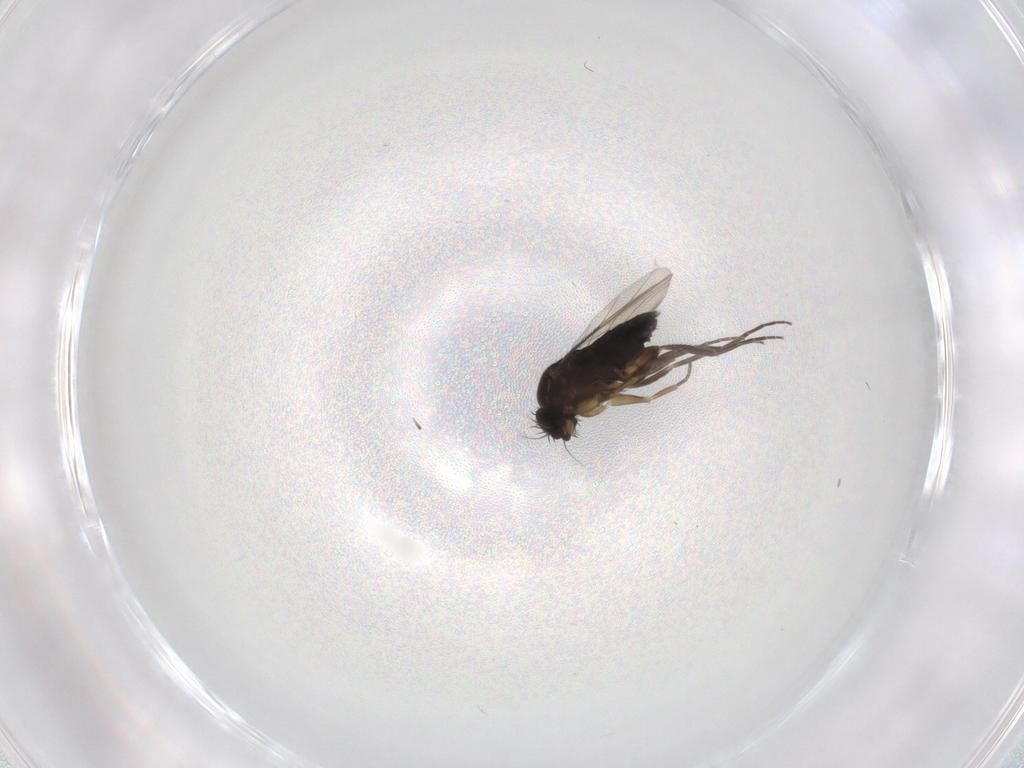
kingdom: Animalia
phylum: Arthropoda
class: Insecta
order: Diptera
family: Phoridae
